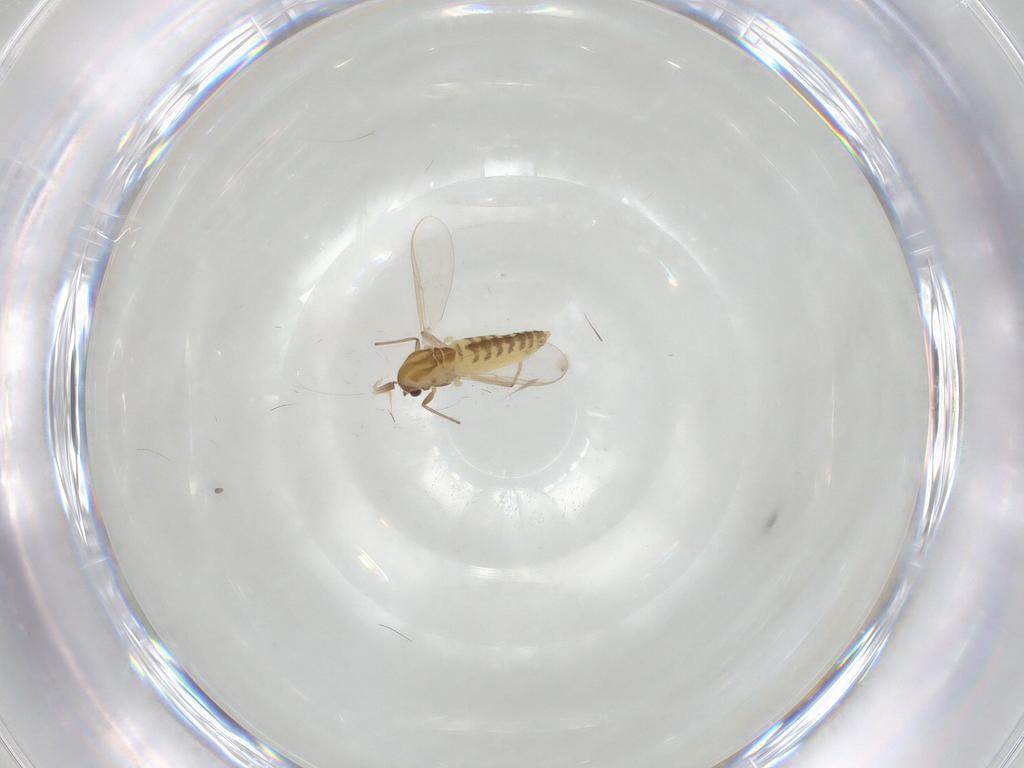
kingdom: Animalia
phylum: Arthropoda
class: Insecta
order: Diptera
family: Chironomidae
